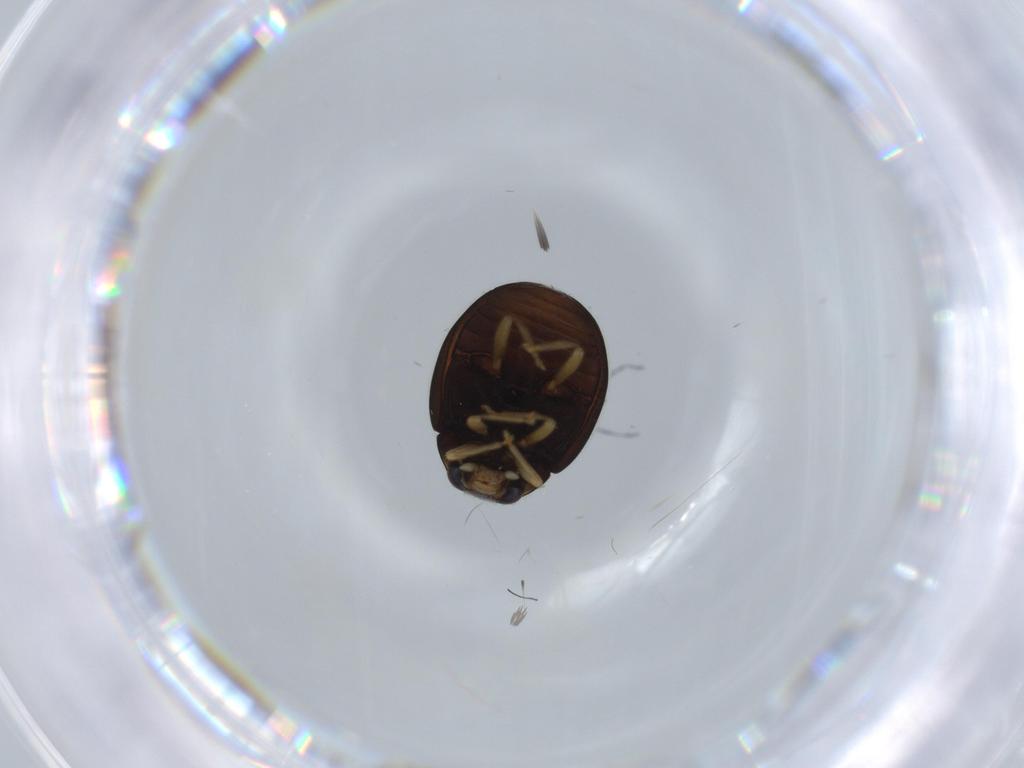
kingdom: Animalia
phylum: Arthropoda
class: Insecta
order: Coleoptera
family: Coccinellidae
